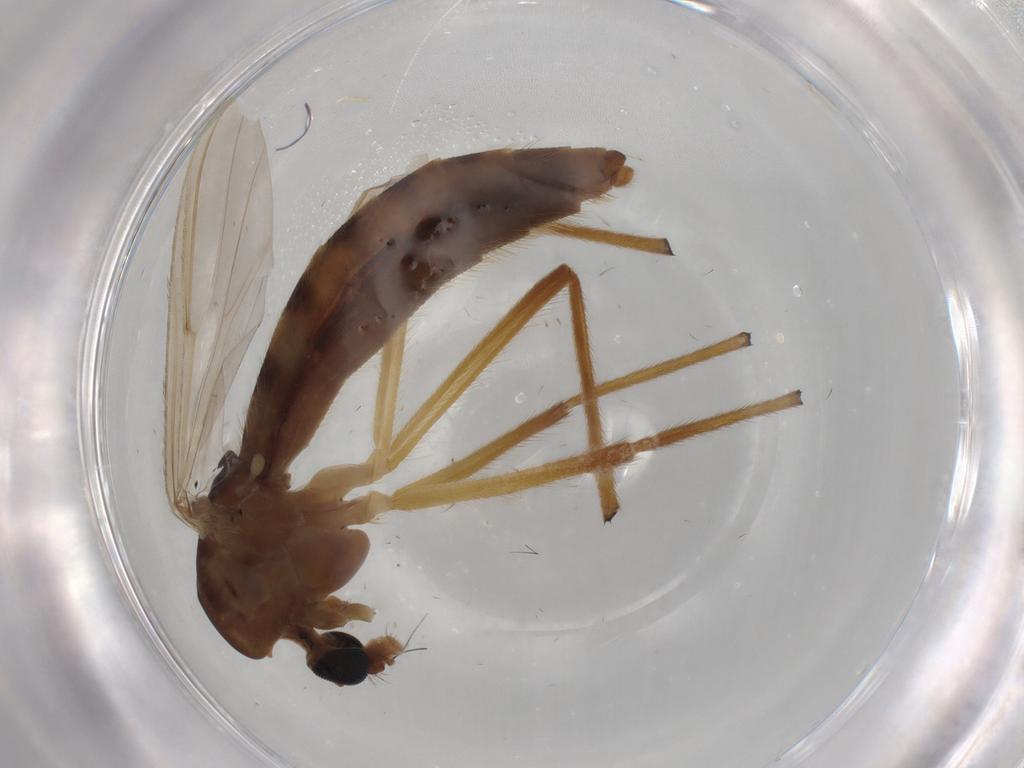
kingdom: Animalia
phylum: Arthropoda
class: Insecta
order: Diptera
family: Chironomidae
